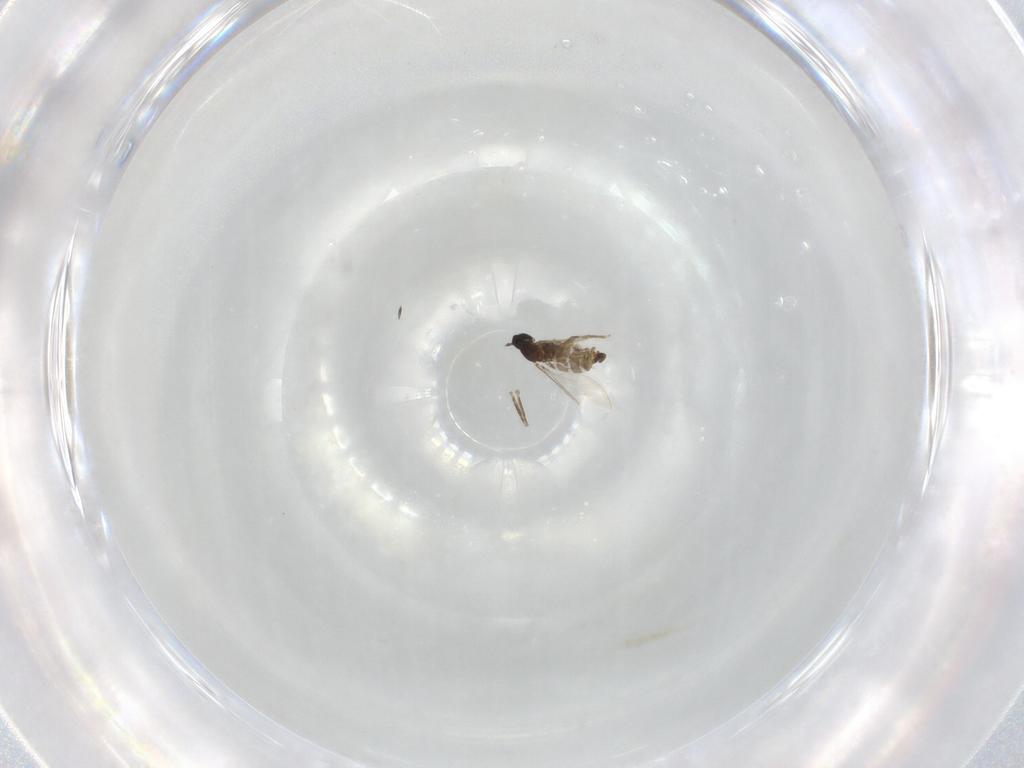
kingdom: Animalia
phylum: Arthropoda
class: Insecta
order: Diptera
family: Cecidomyiidae
